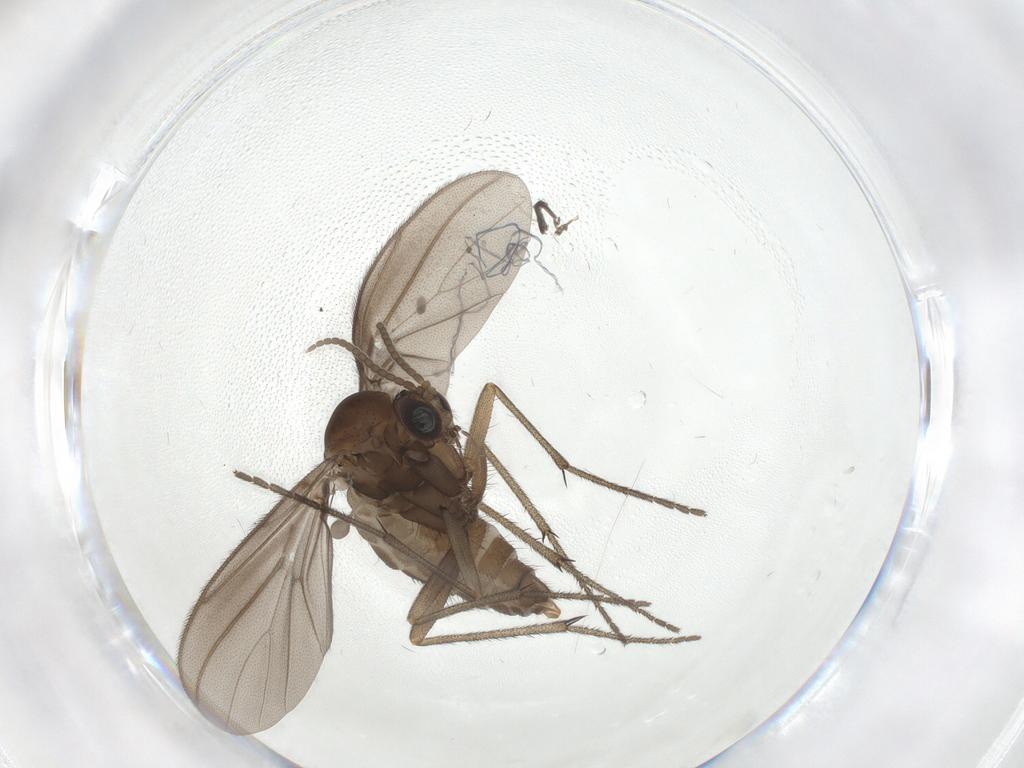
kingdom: Animalia
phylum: Arthropoda
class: Insecta
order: Diptera
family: Diadocidiidae
